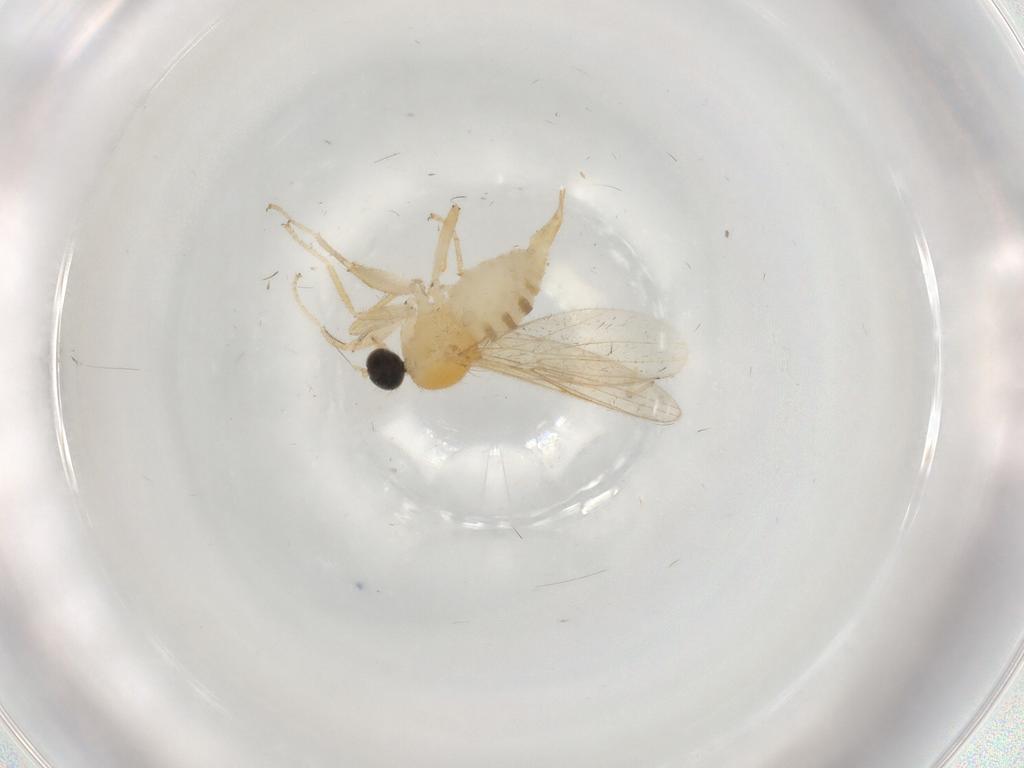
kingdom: Animalia
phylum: Arthropoda
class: Insecta
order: Diptera
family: Hybotidae
